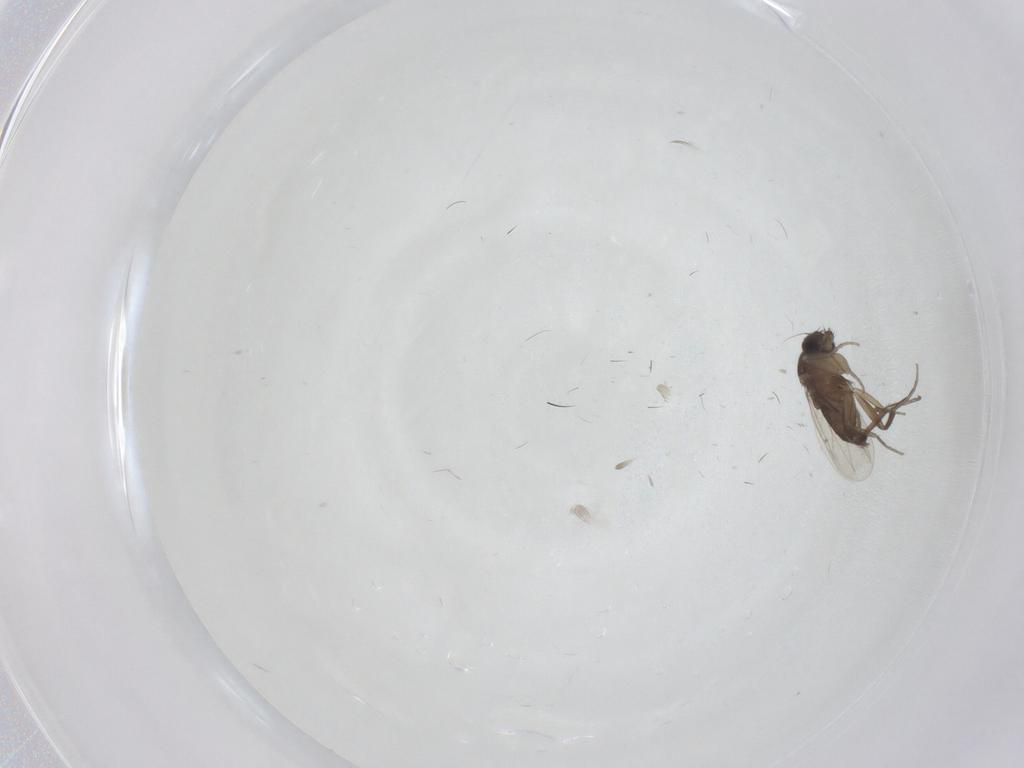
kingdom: Animalia
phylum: Arthropoda
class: Insecta
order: Diptera
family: Phoridae
